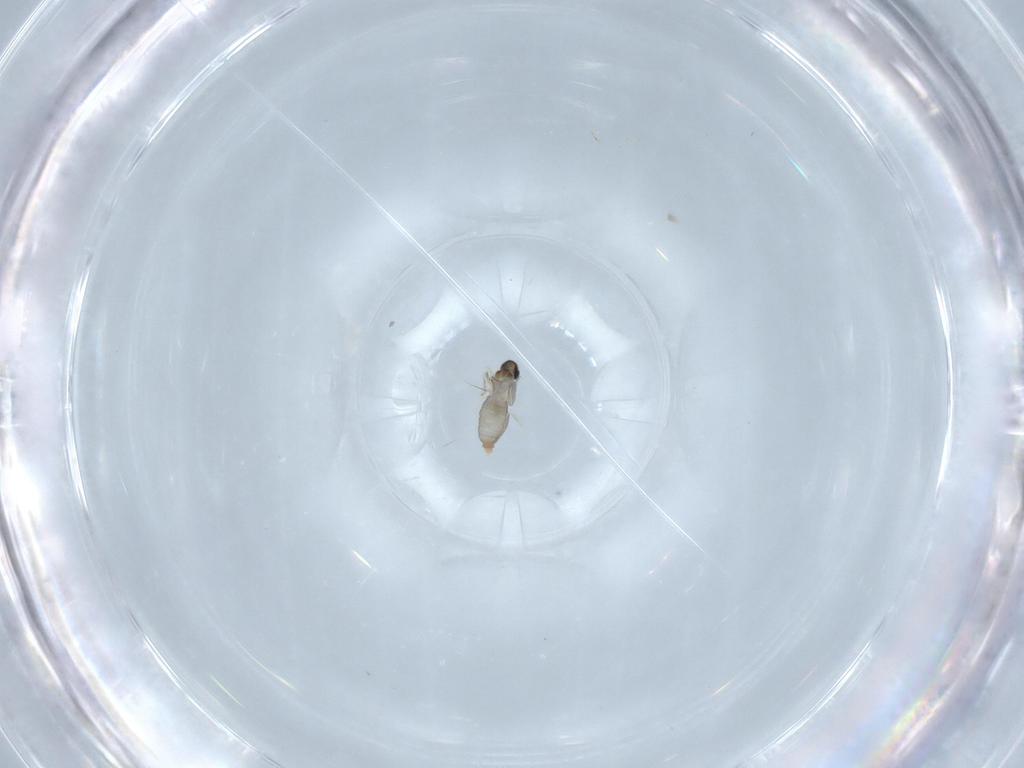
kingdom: Animalia
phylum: Arthropoda
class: Insecta
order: Diptera
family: Cecidomyiidae
